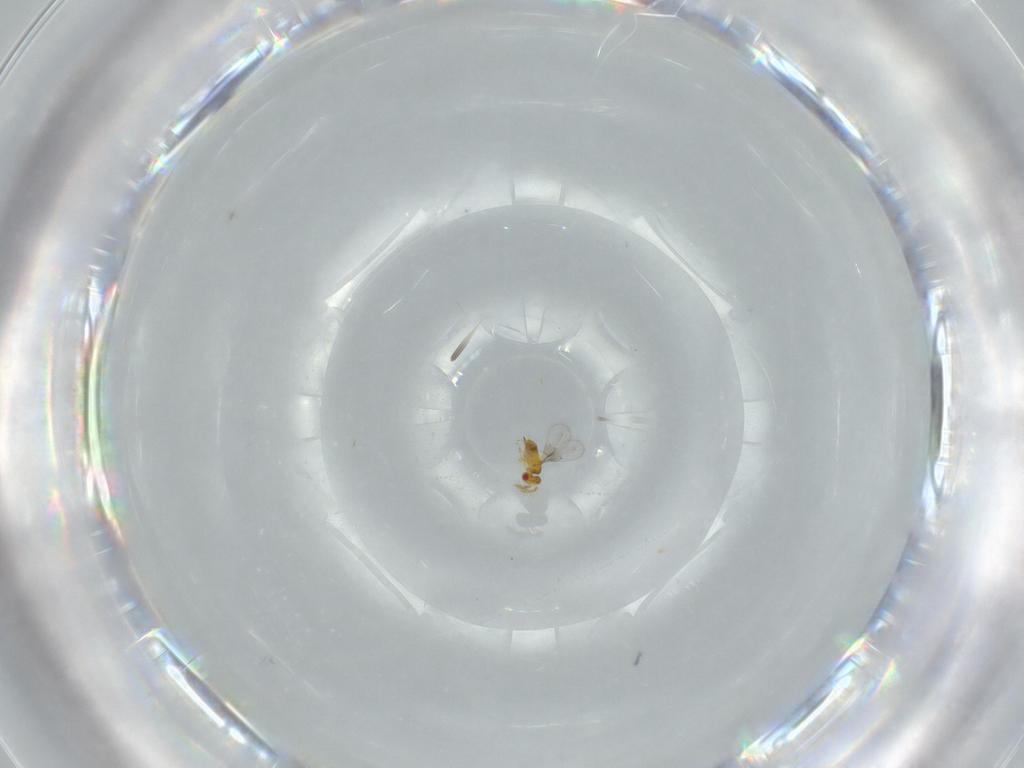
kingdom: Animalia
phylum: Arthropoda
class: Insecta
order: Hymenoptera
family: Trichogrammatidae
